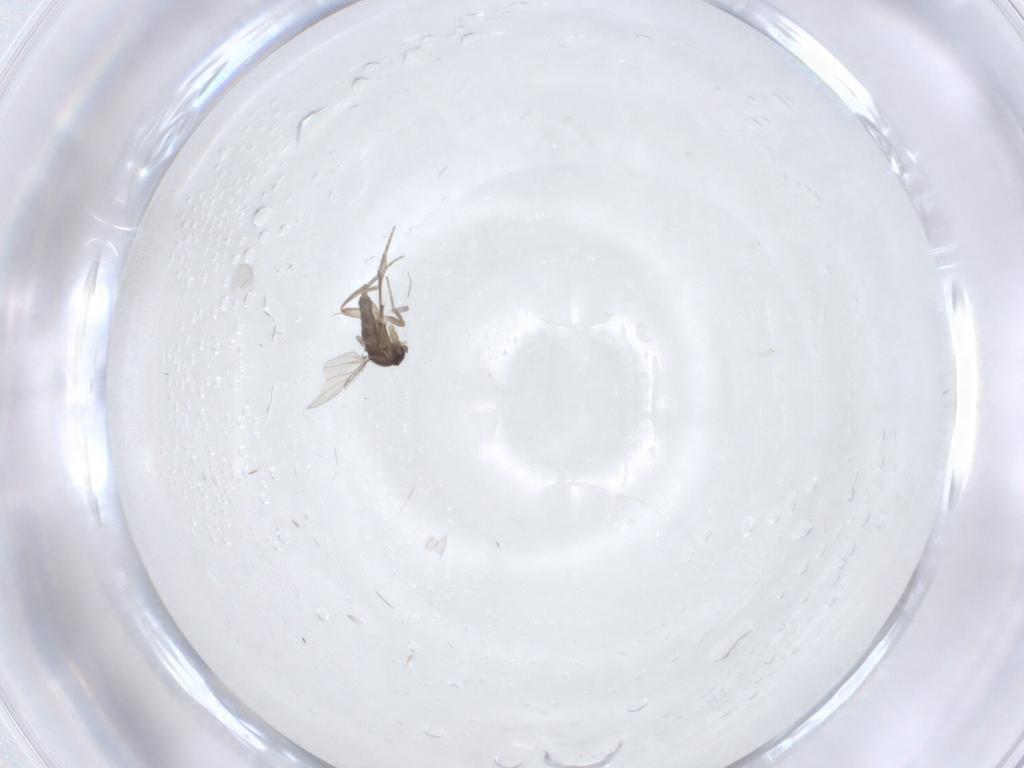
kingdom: Animalia
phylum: Arthropoda
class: Insecta
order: Diptera
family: Phoridae
